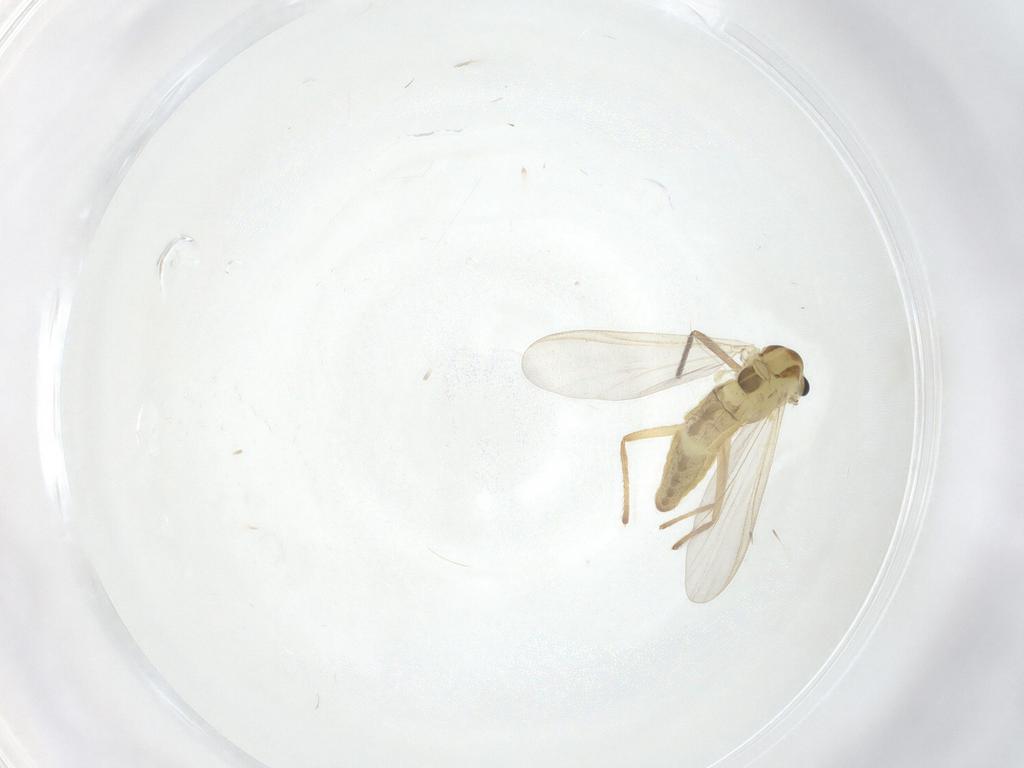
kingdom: Animalia
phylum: Arthropoda
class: Insecta
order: Diptera
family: Chironomidae
